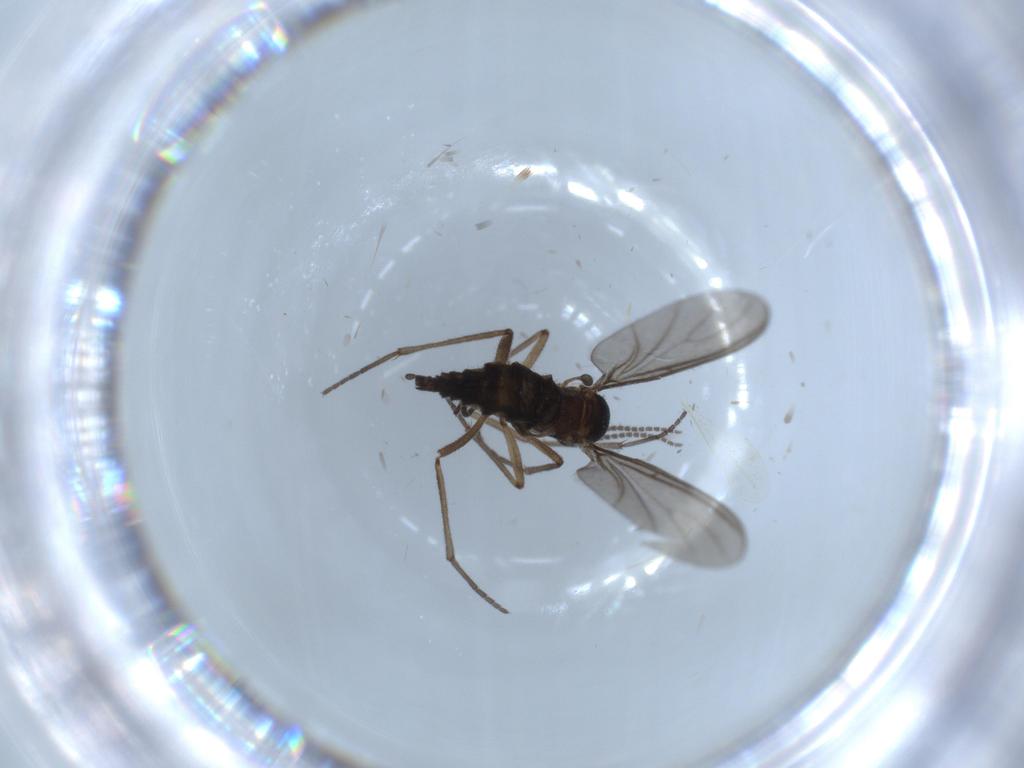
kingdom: Animalia
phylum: Arthropoda
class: Insecta
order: Diptera
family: Sciaridae
